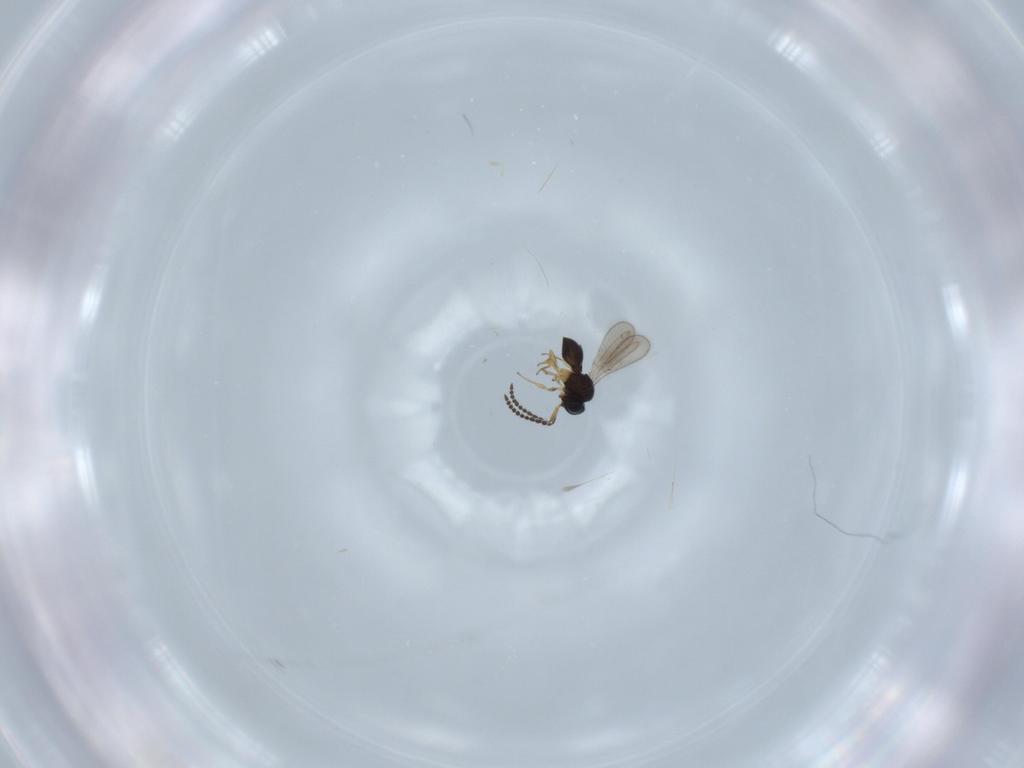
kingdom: Animalia
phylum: Arthropoda
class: Insecta
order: Hymenoptera
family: Scelionidae
